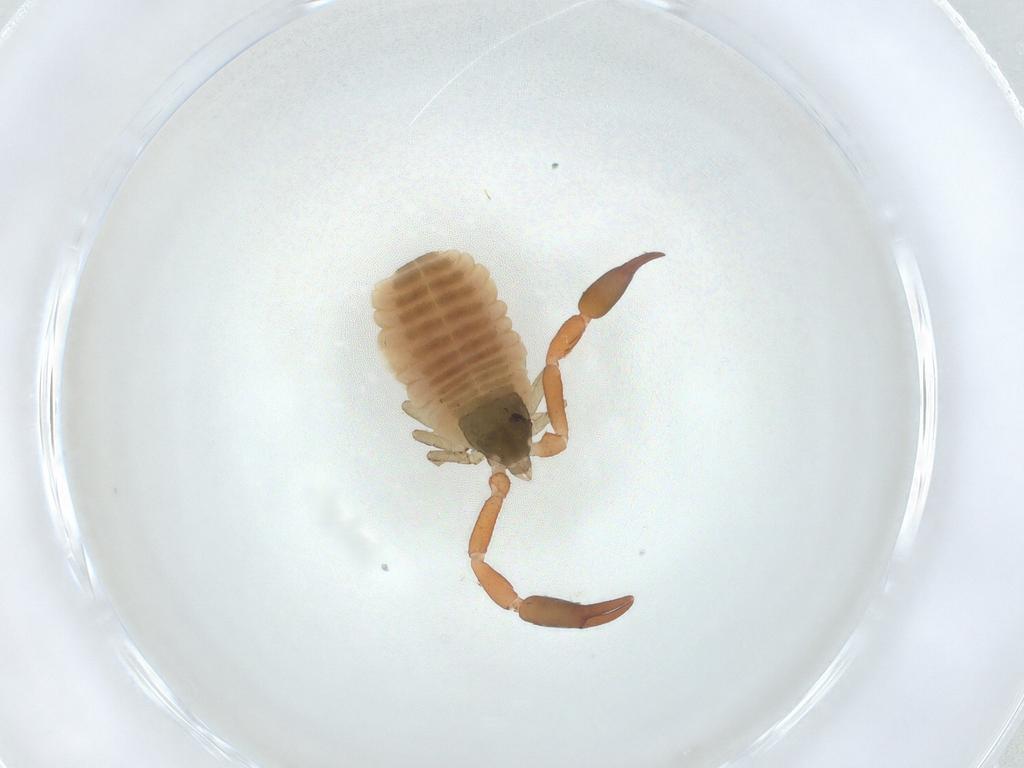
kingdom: Animalia
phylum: Arthropoda
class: Arachnida
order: Pseudoscorpiones
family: Cheliferidae
